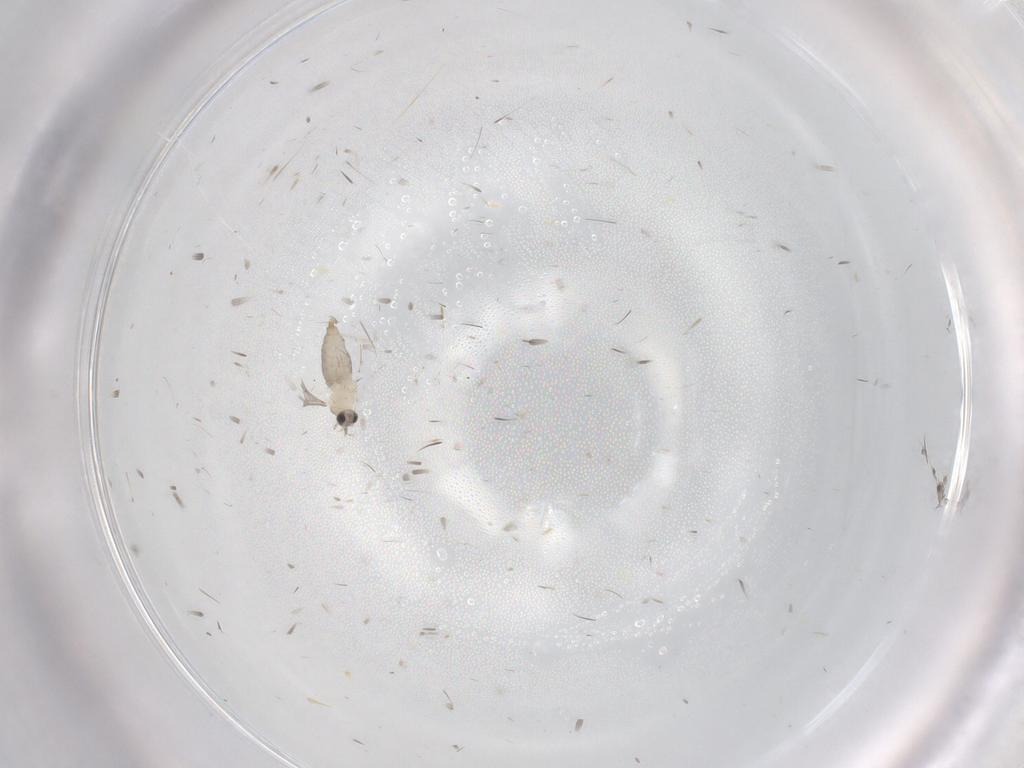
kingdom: Animalia
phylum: Arthropoda
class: Insecta
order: Diptera
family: Cecidomyiidae
